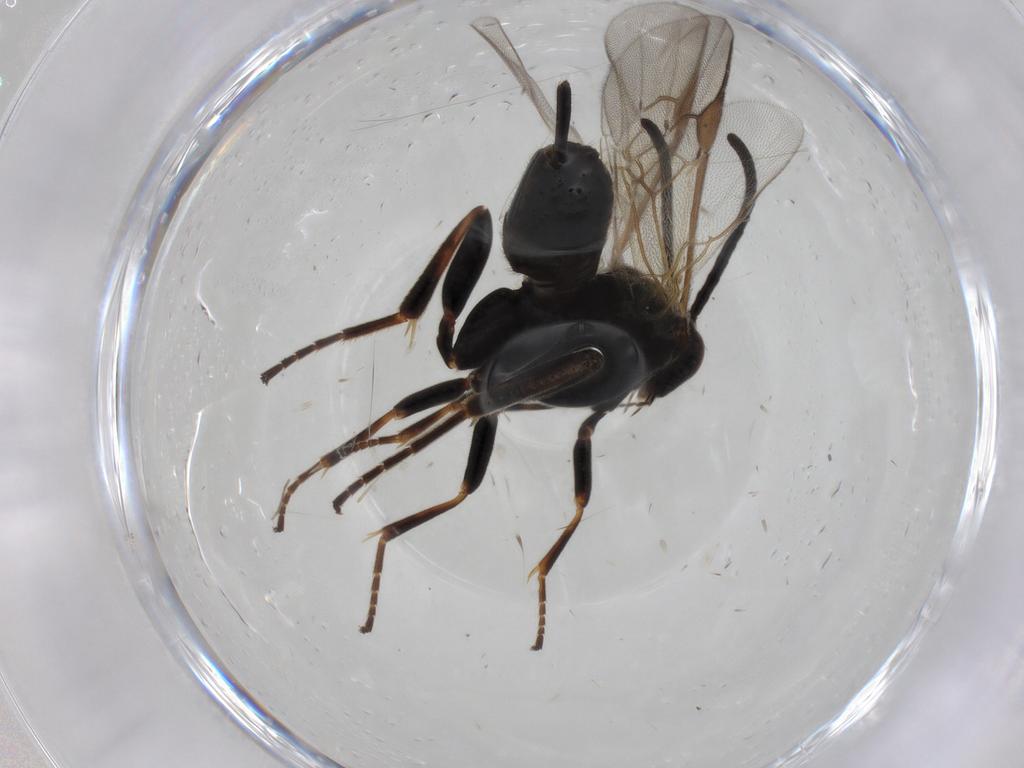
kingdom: Animalia
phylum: Arthropoda
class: Insecta
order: Hymenoptera
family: Braconidae
